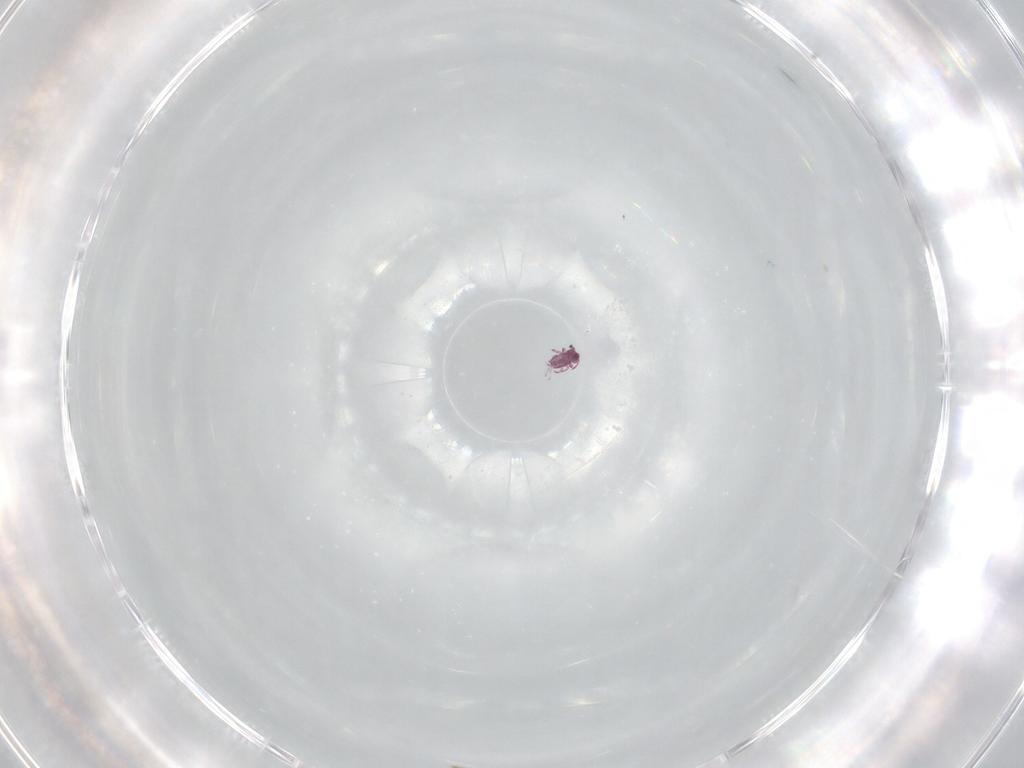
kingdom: Animalia
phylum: Arthropoda
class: Collembola
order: Symphypleona
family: Sminthurididae
